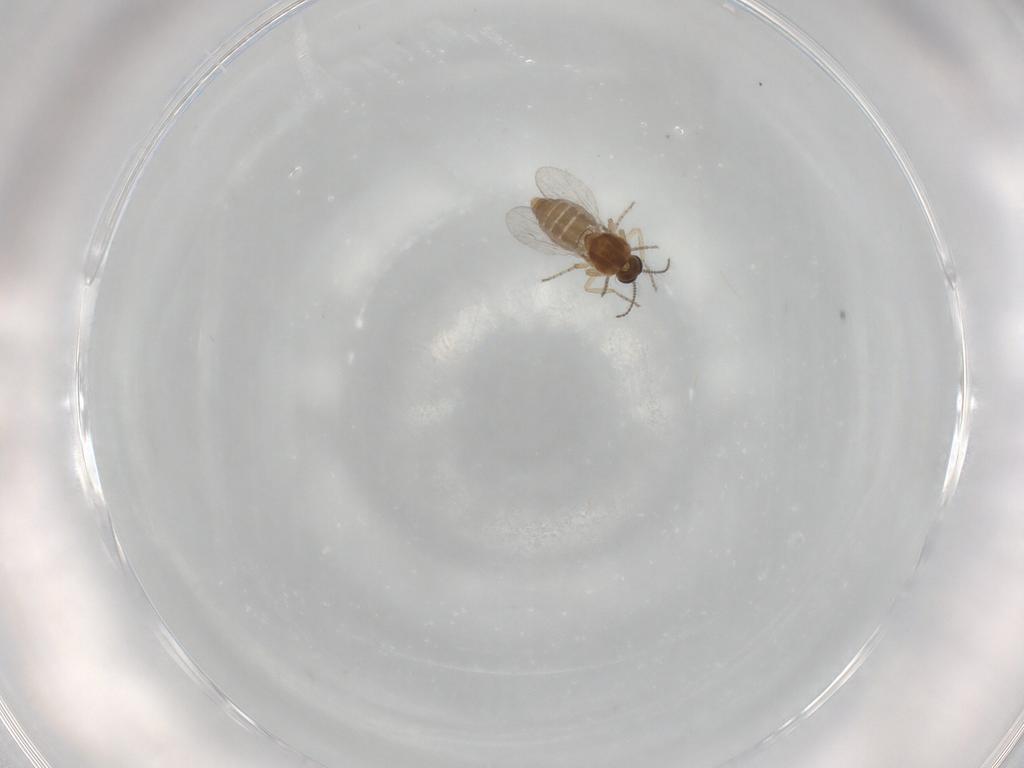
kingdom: Animalia
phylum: Arthropoda
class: Insecta
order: Diptera
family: Ceratopogonidae
